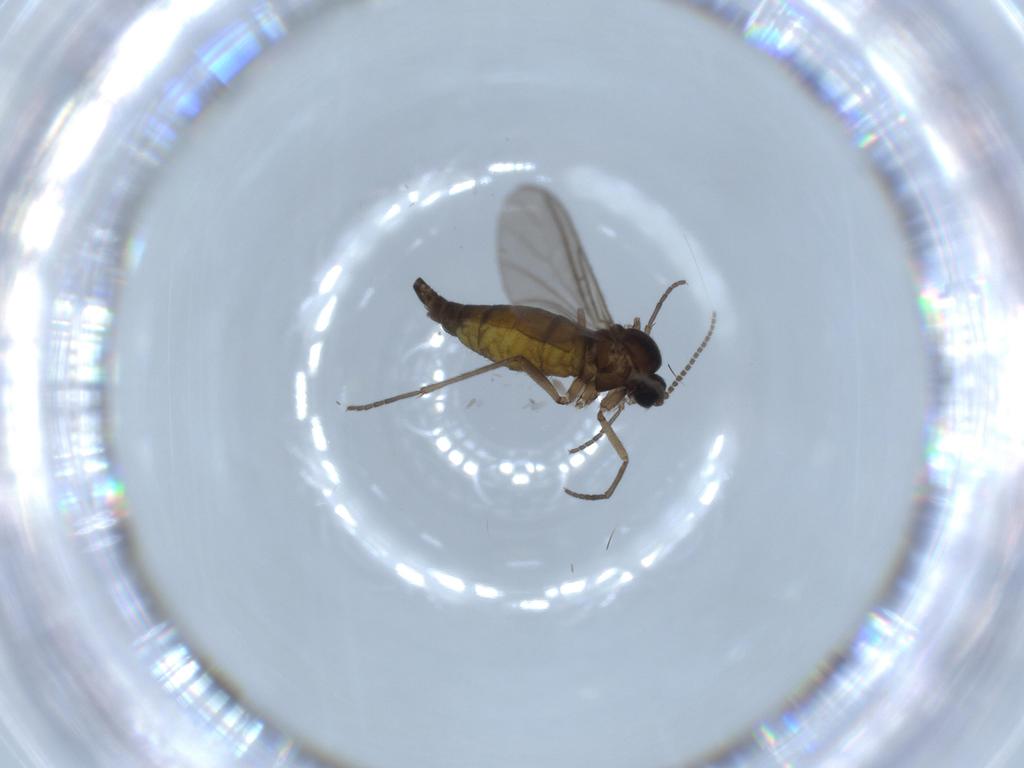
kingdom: Animalia
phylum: Arthropoda
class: Insecta
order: Diptera
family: Sciaridae
